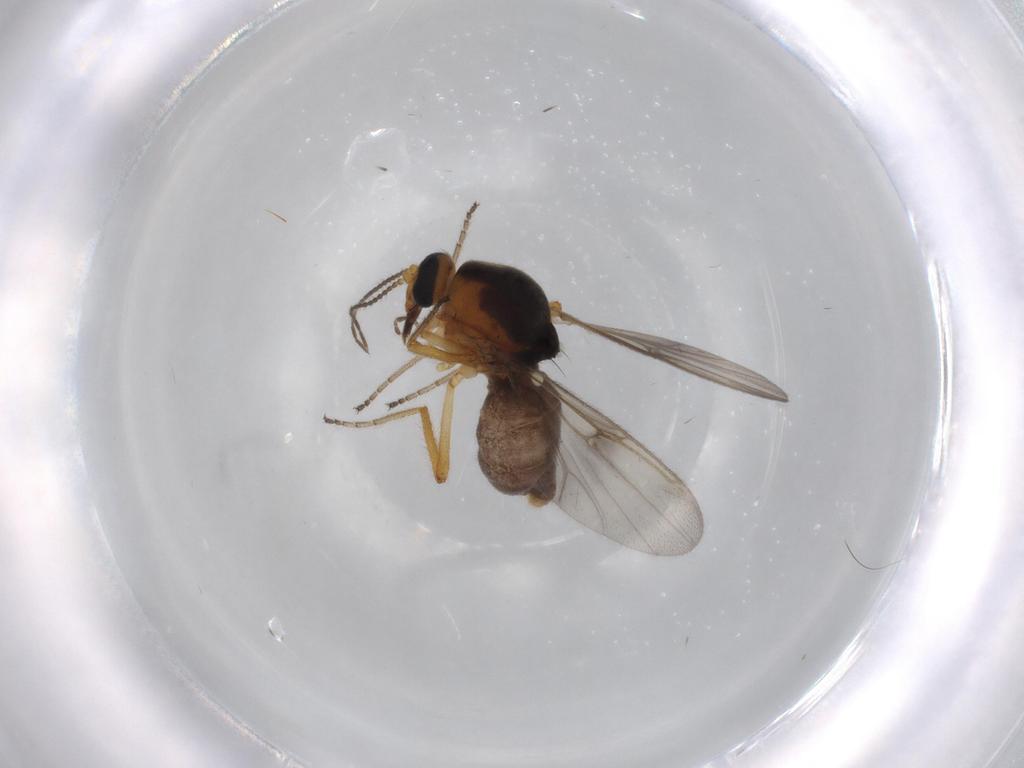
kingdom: Animalia
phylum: Arthropoda
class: Insecta
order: Diptera
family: Ceratopogonidae
